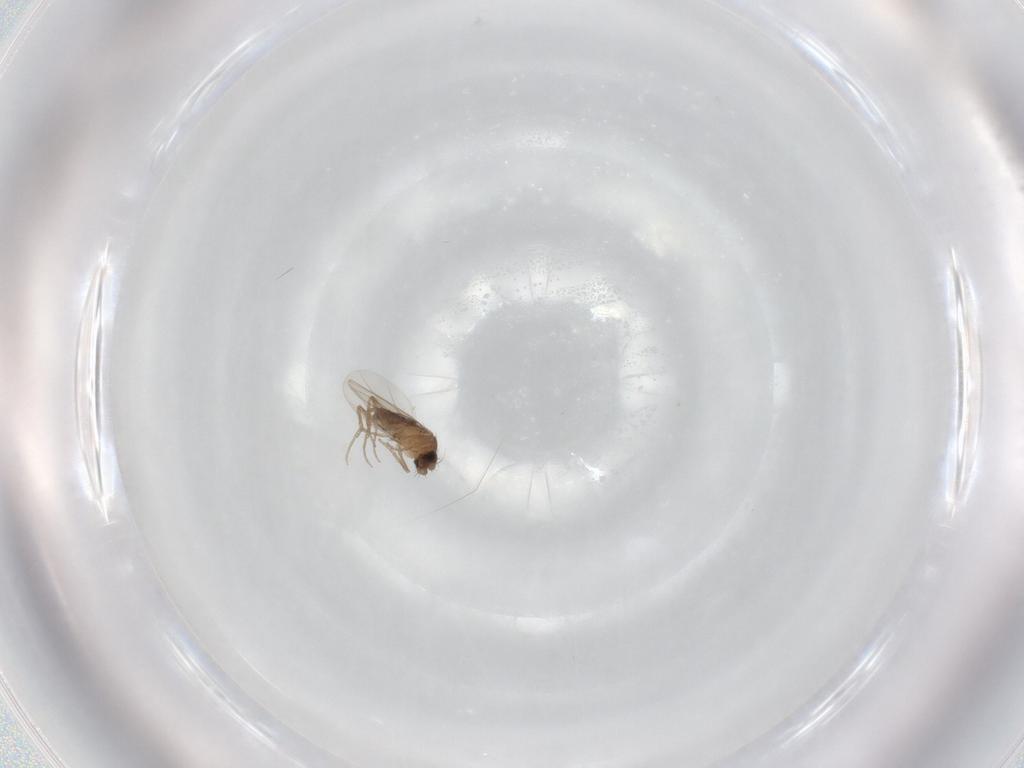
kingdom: Animalia
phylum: Arthropoda
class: Insecta
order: Diptera
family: Phoridae
